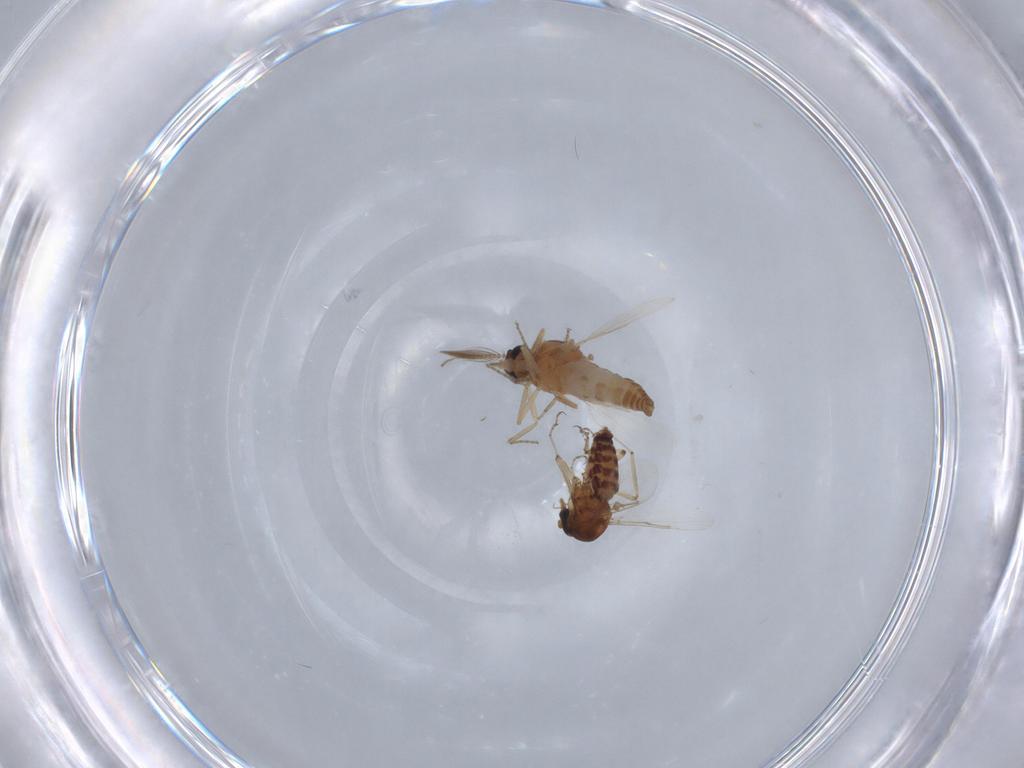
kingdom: Animalia
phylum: Arthropoda
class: Insecta
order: Diptera
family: Ceratopogonidae
